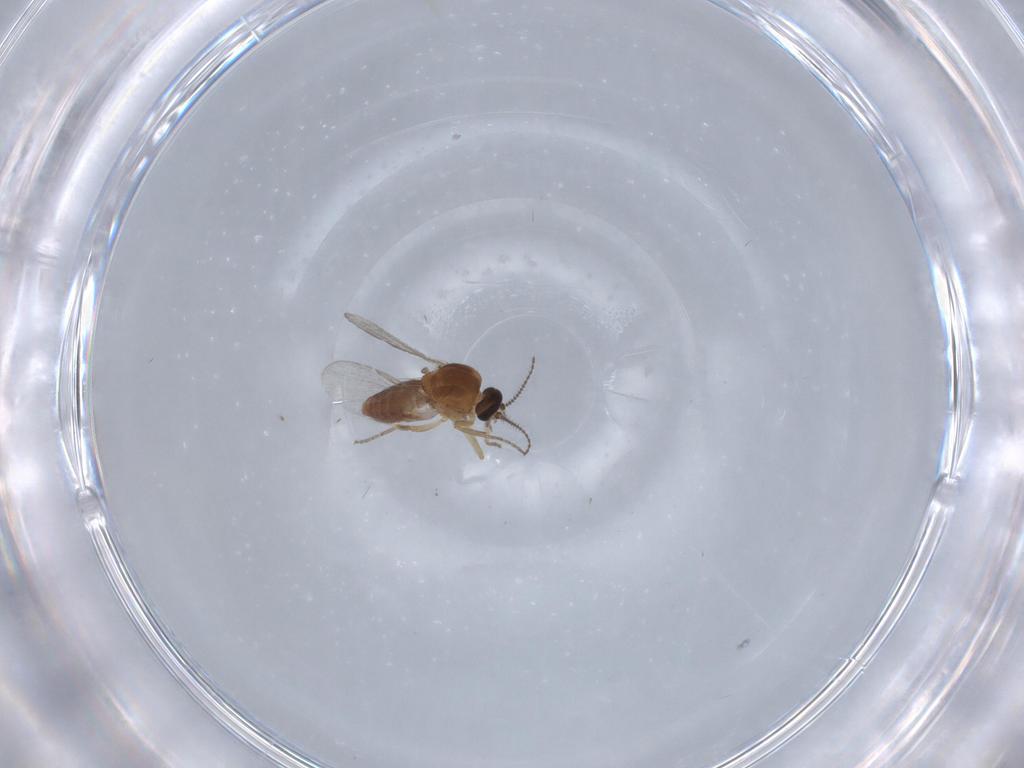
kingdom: Animalia
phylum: Arthropoda
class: Insecta
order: Diptera
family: Ceratopogonidae
